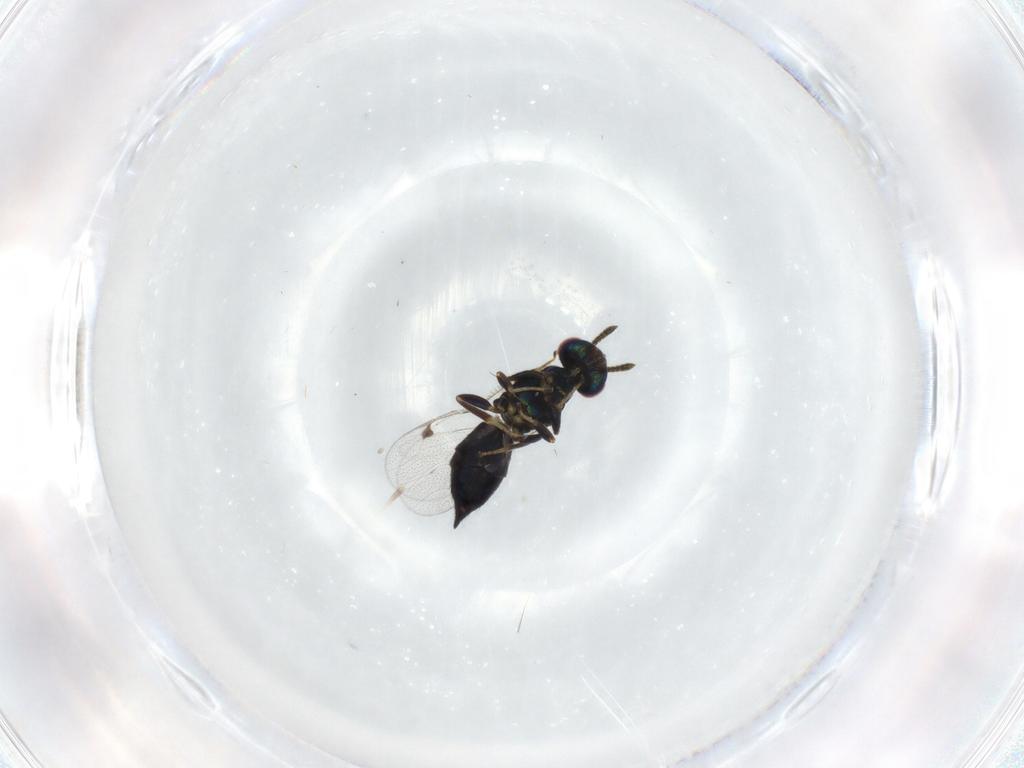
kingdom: Animalia
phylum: Arthropoda
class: Insecta
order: Hymenoptera
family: Pteromalidae
